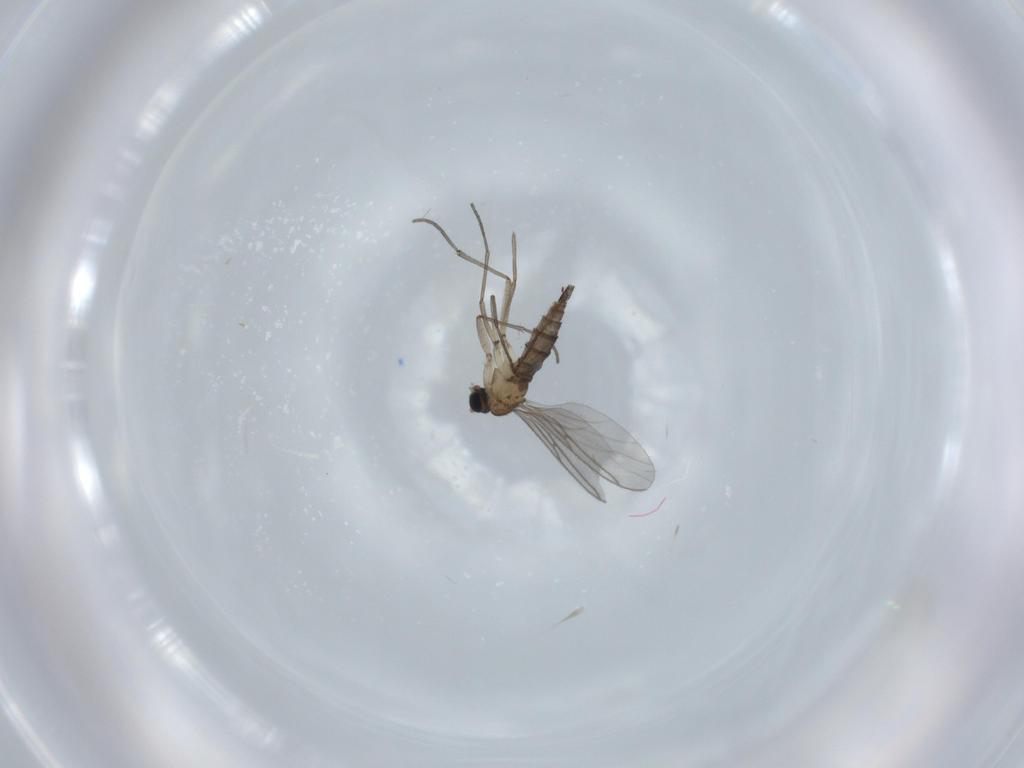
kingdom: Animalia
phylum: Arthropoda
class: Insecta
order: Diptera
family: Sciaridae
